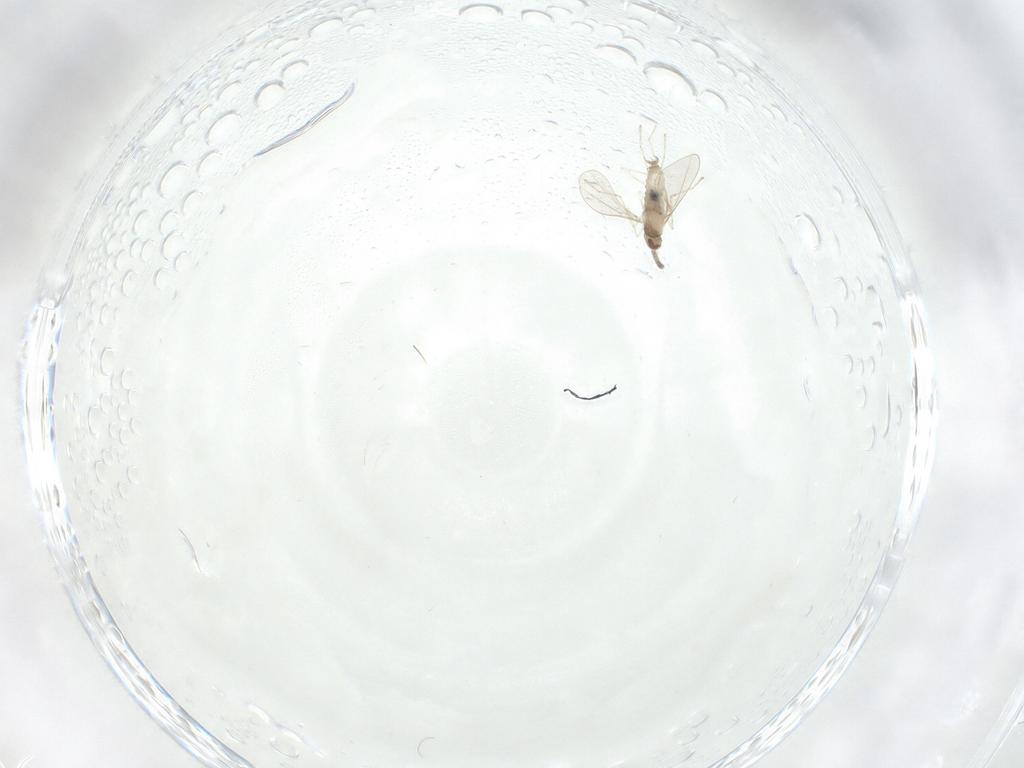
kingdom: Animalia
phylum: Arthropoda
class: Insecta
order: Diptera
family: Cecidomyiidae
